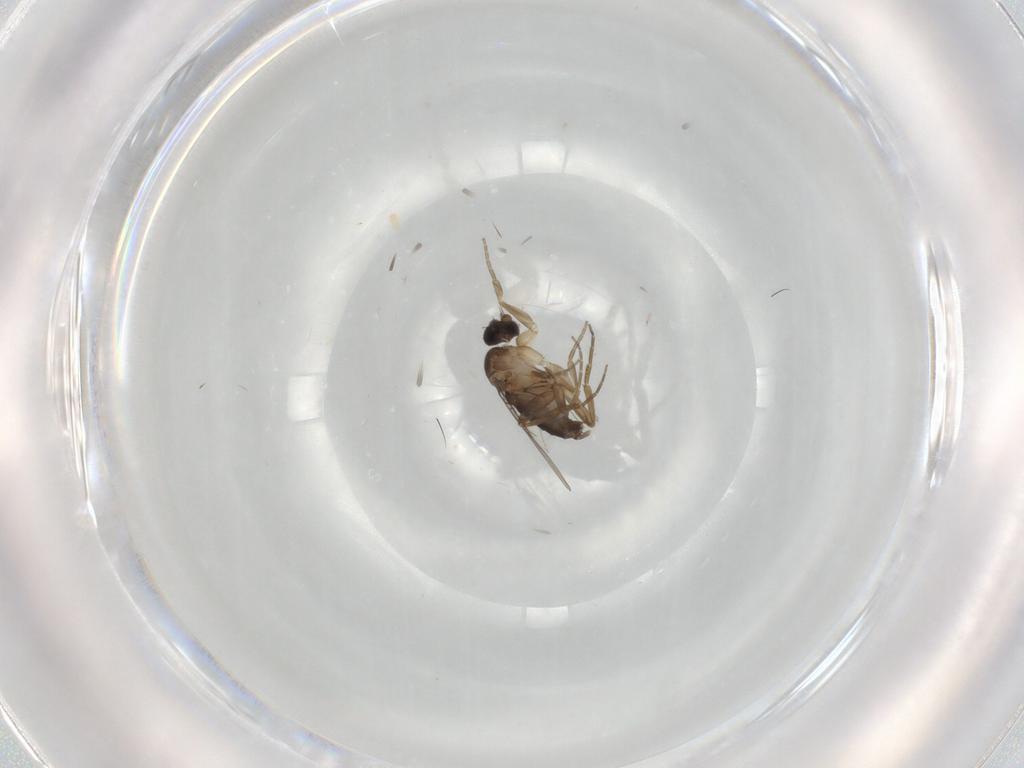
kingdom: Animalia
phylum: Arthropoda
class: Insecta
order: Diptera
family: Phoridae
